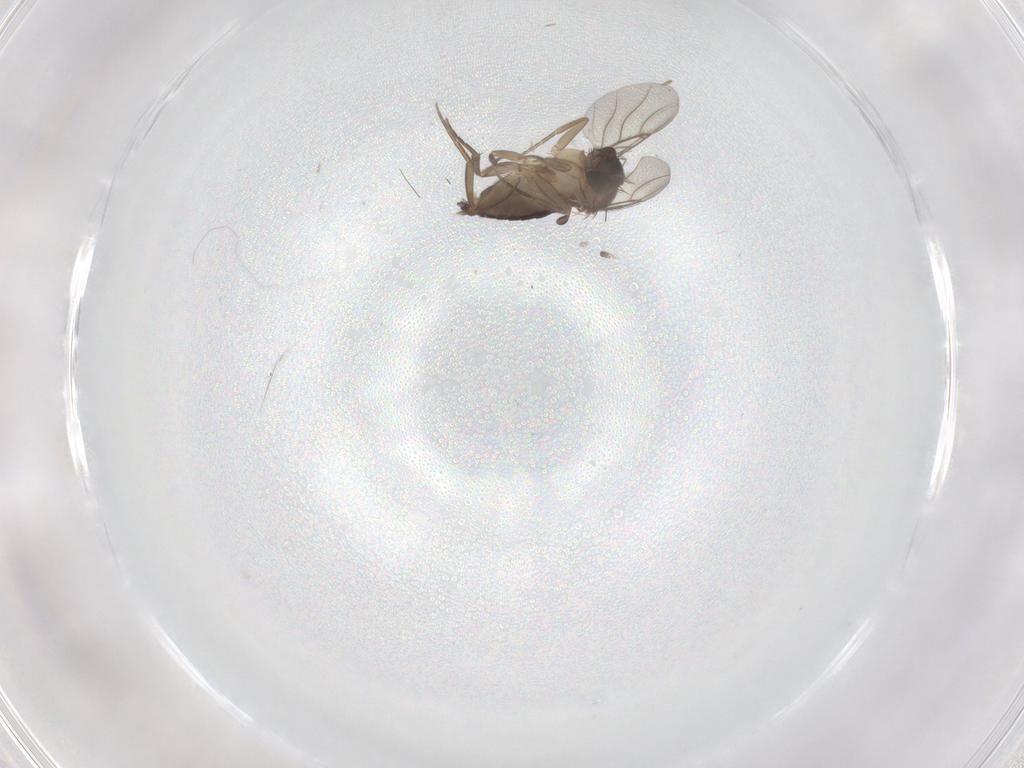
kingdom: Animalia
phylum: Arthropoda
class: Insecta
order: Diptera
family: Phoridae
